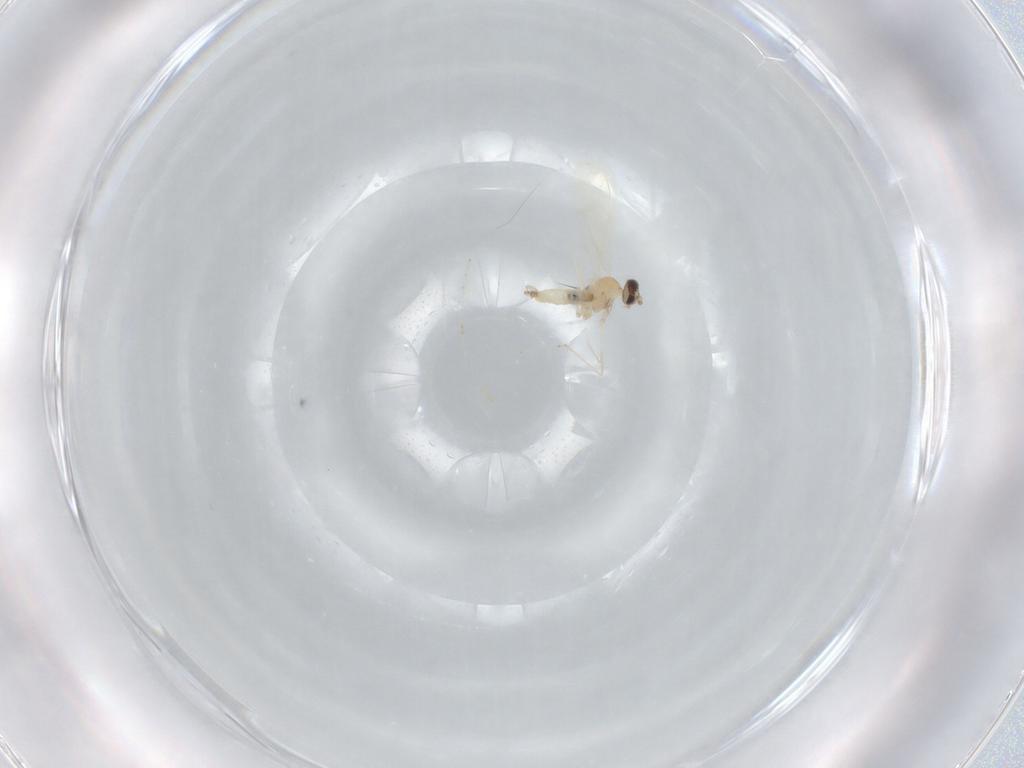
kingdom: Animalia
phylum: Arthropoda
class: Insecta
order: Diptera
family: Cecidomyiidae
